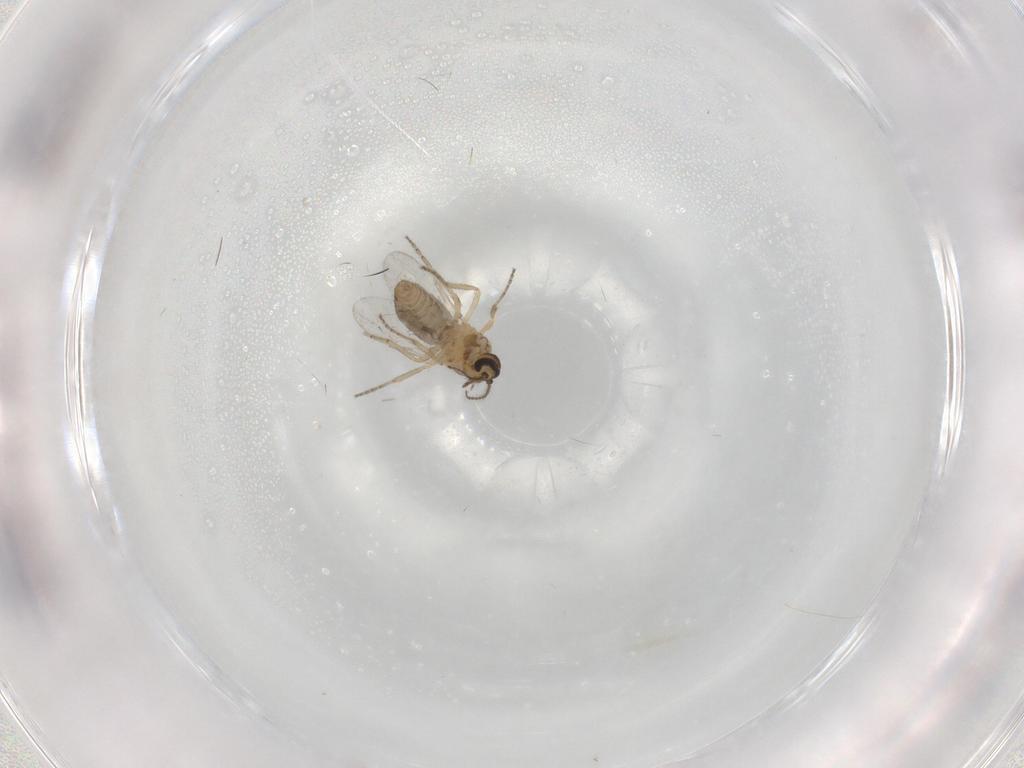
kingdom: Animalia
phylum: Arthropoda
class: Insecta
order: Diptera
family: Ceratopogonidae
